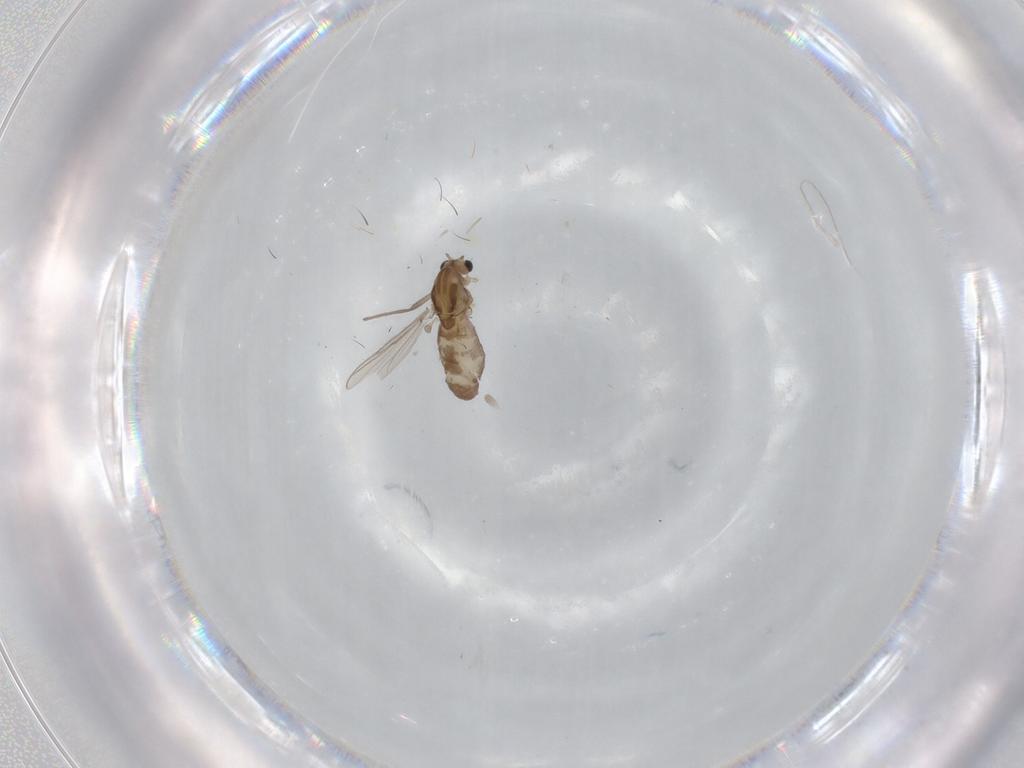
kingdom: Animalia
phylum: Arthropoda
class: Insecta
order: Diptera
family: Chironomidae
